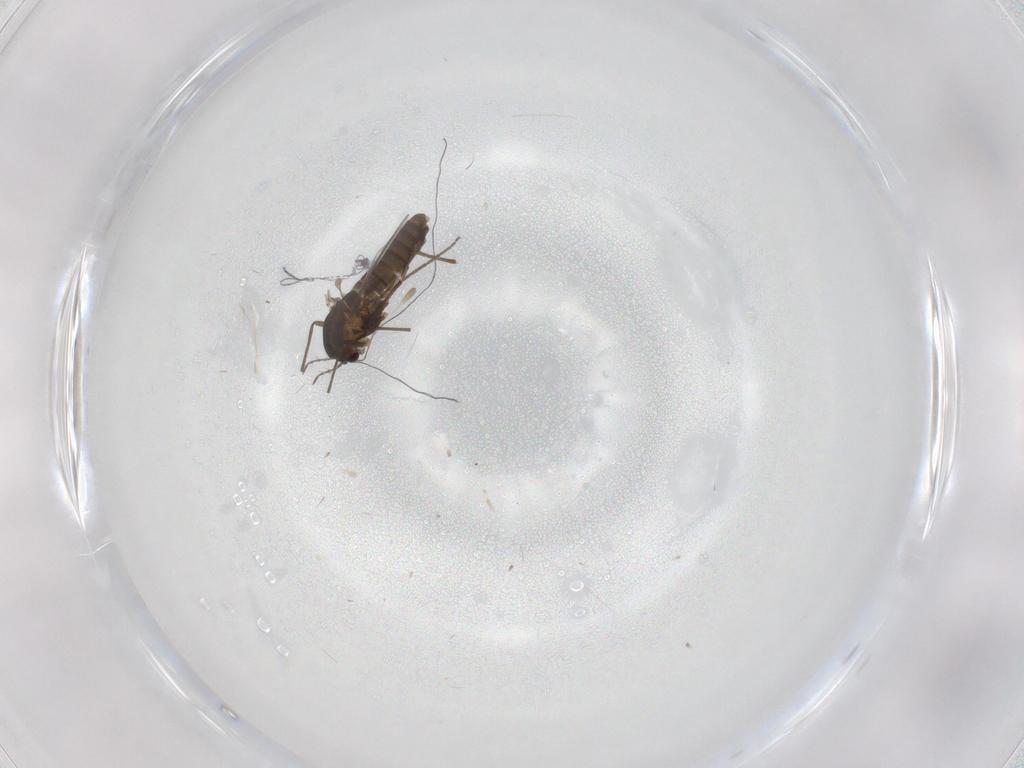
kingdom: Animalia
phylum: Arthropoda
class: Insecta
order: Diptera
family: Chironomidae
